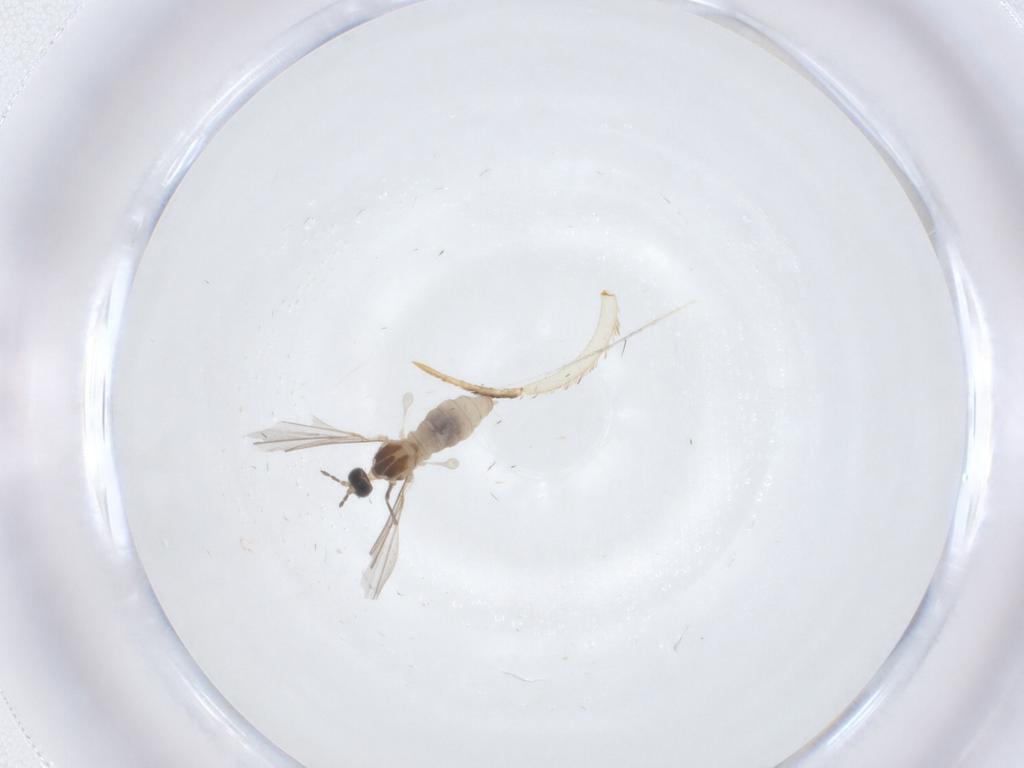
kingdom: Animalia
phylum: Arthropoda
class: Insecta
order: Diptera
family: Cecidomyiidae
